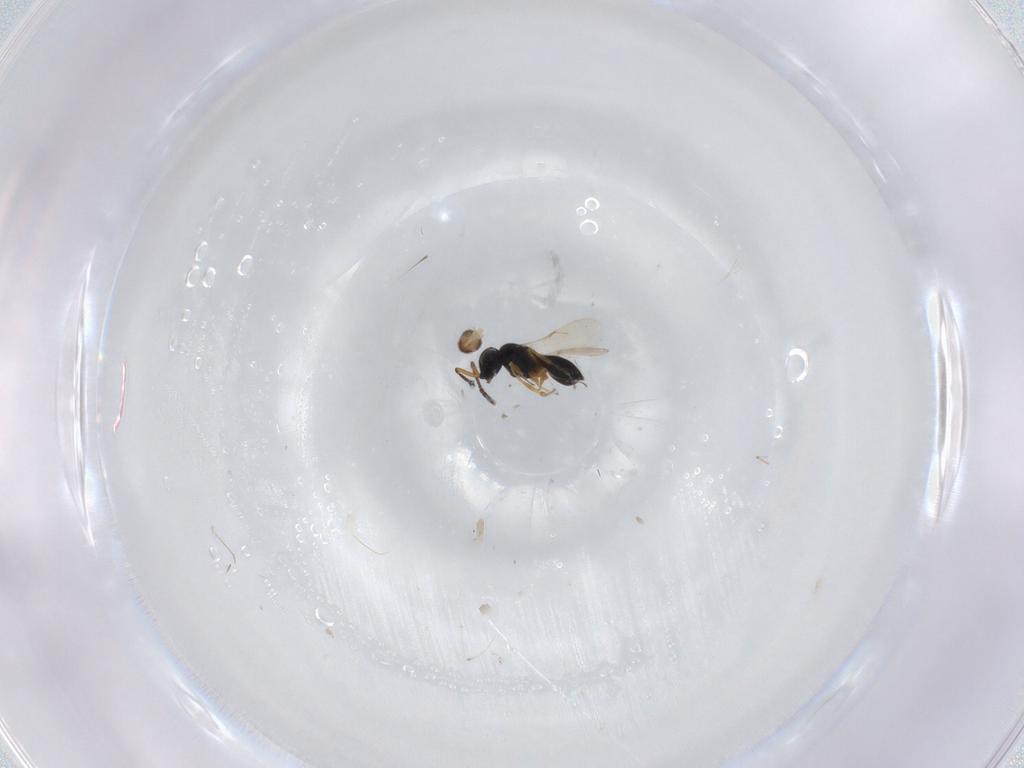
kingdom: Animalia
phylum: Arthropoda
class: Insecta
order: Hymenoptera
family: Scelionidae
